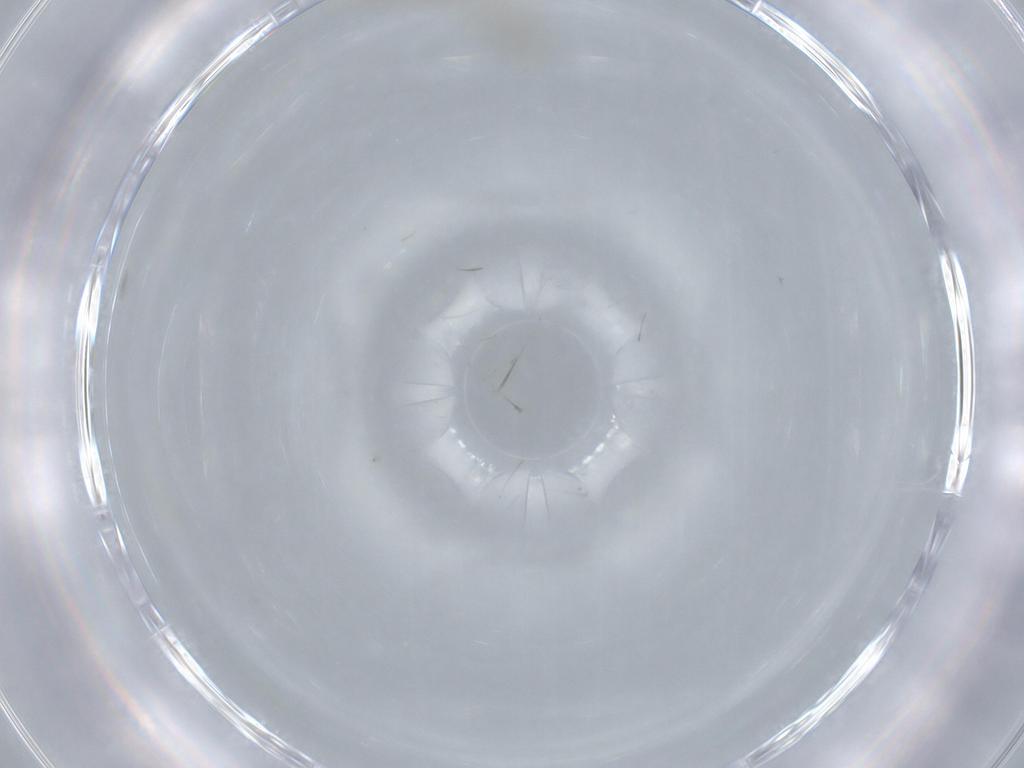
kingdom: Animalia
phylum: Arthropoda
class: Insecta
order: Diptera
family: Cecidomyiidae
